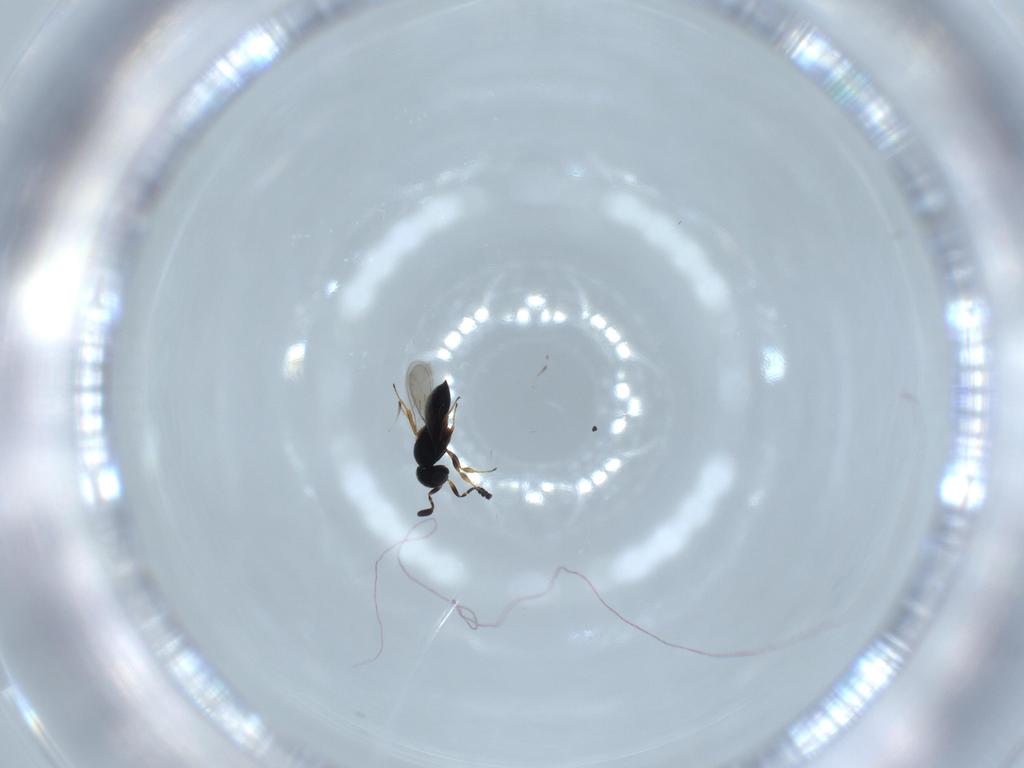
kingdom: Animalia
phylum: Arthropoda
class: Insecta
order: Hymenoptera
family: Scelionidae
